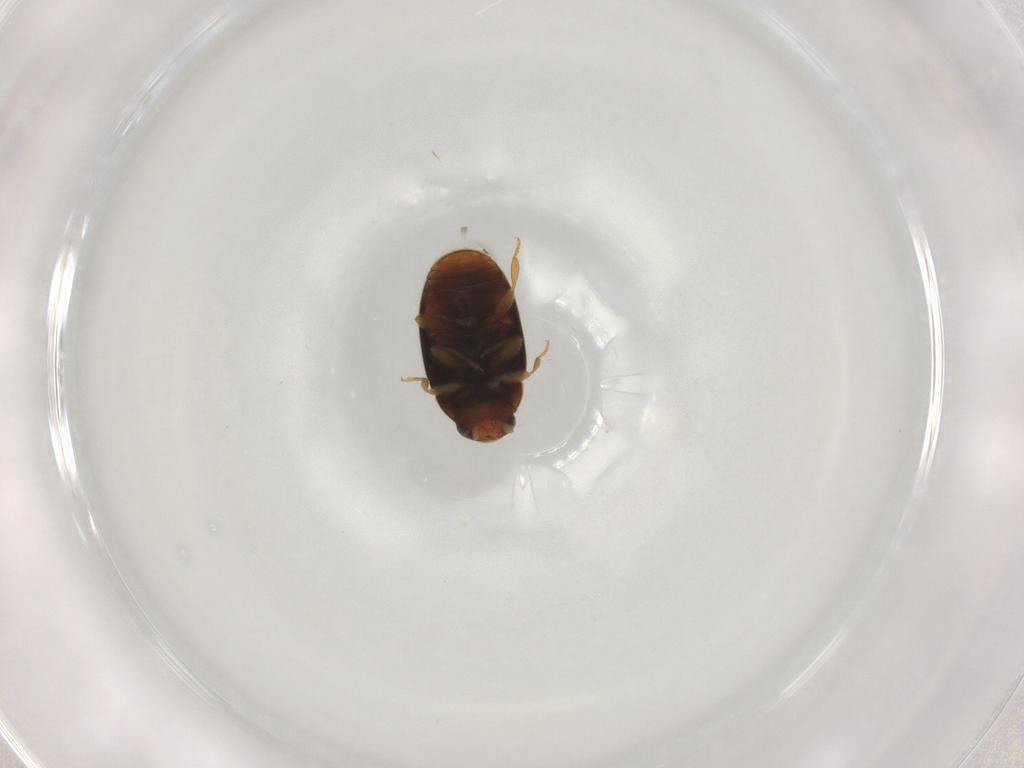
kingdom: Animalia
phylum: Arthropoda
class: Insecta
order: Coleoptera
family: Coccinellidae
